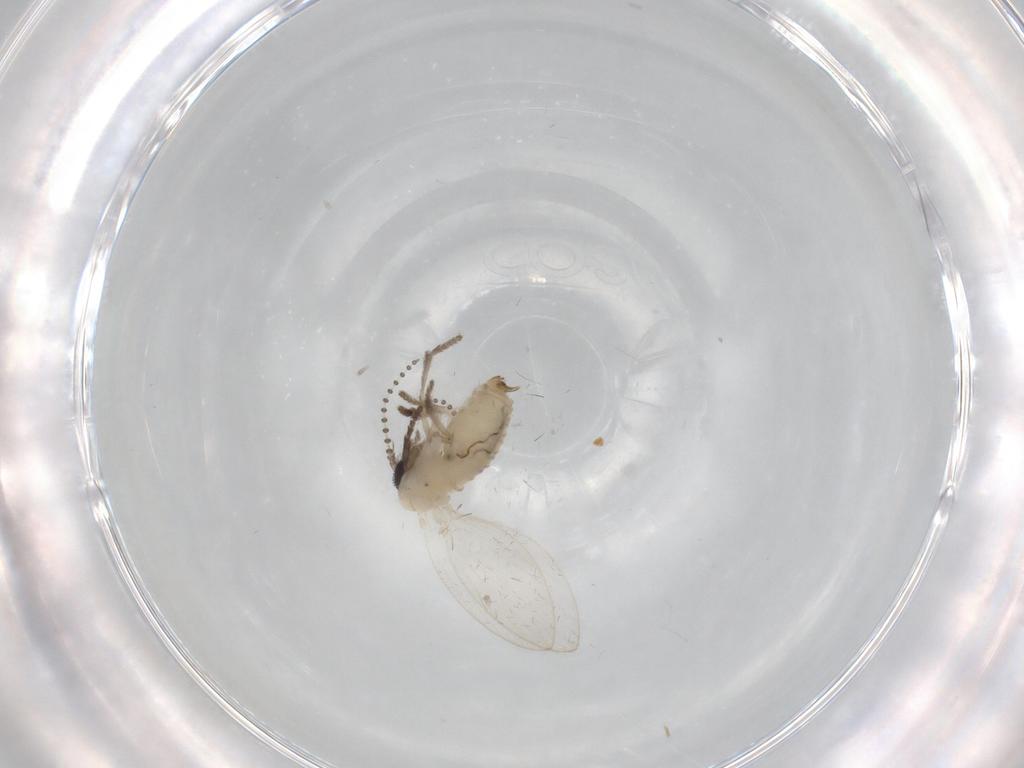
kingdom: Animalia
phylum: Arthropoda
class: Insecta
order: Diptera
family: Psychodidae
